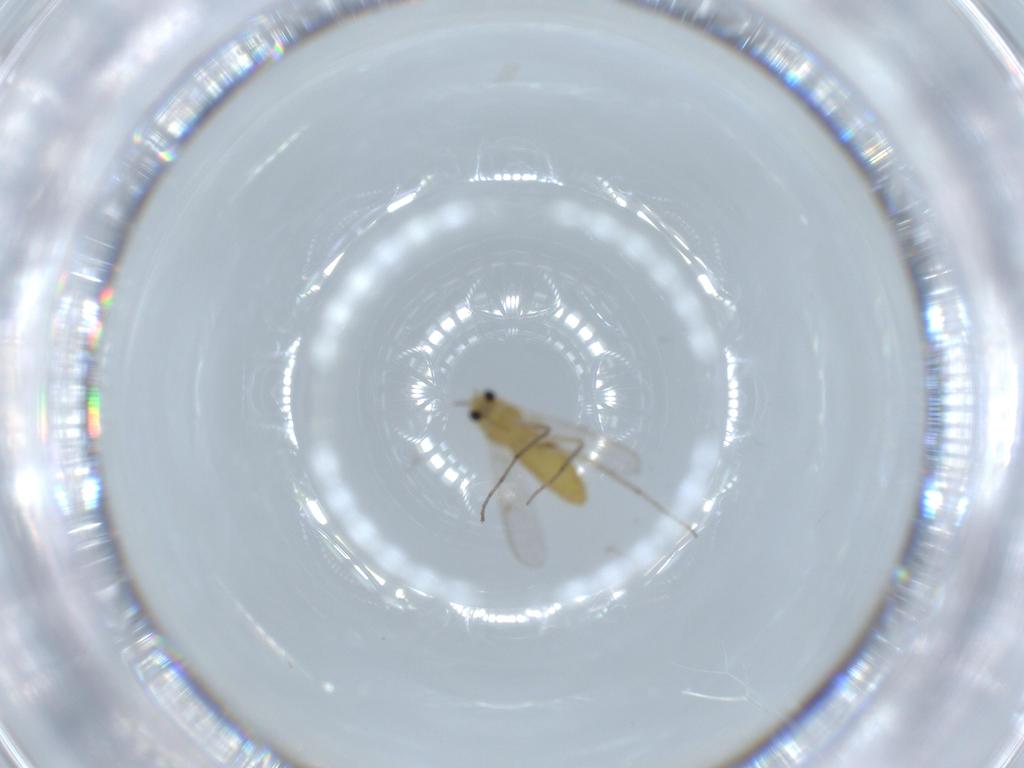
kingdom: Animalia
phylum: Arthropoda
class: Insecta
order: Diptera
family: Chironomidae
